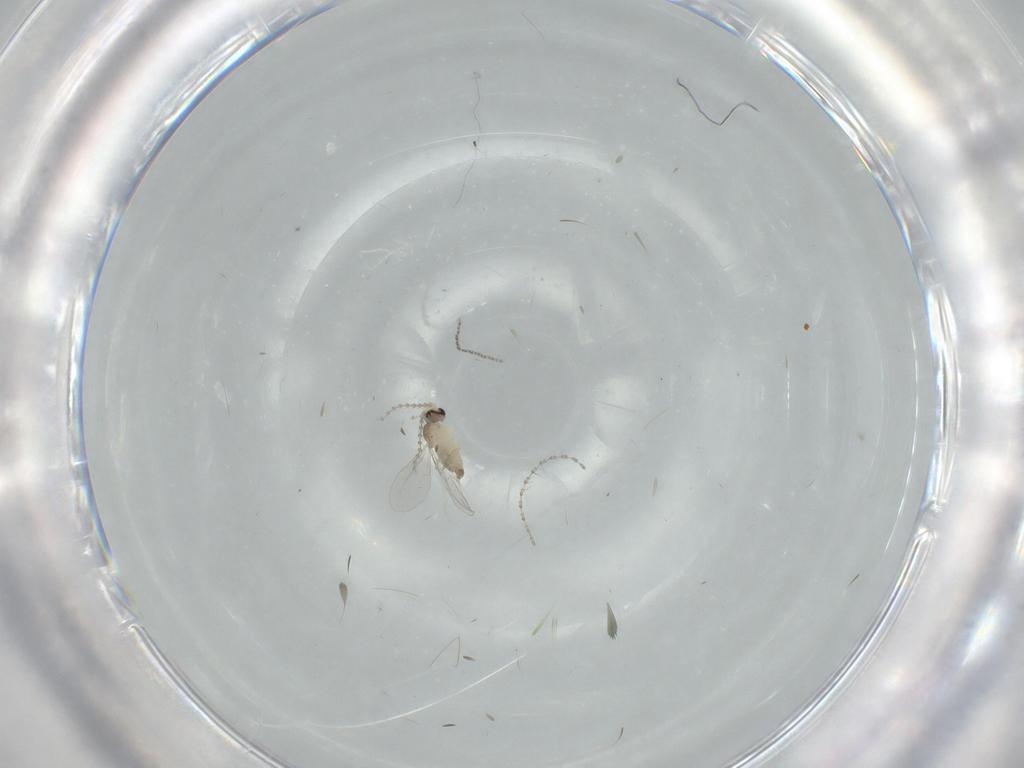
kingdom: Animalia
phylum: Arthropoda
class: Insecta
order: Diptera
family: Cecidomyiidae
